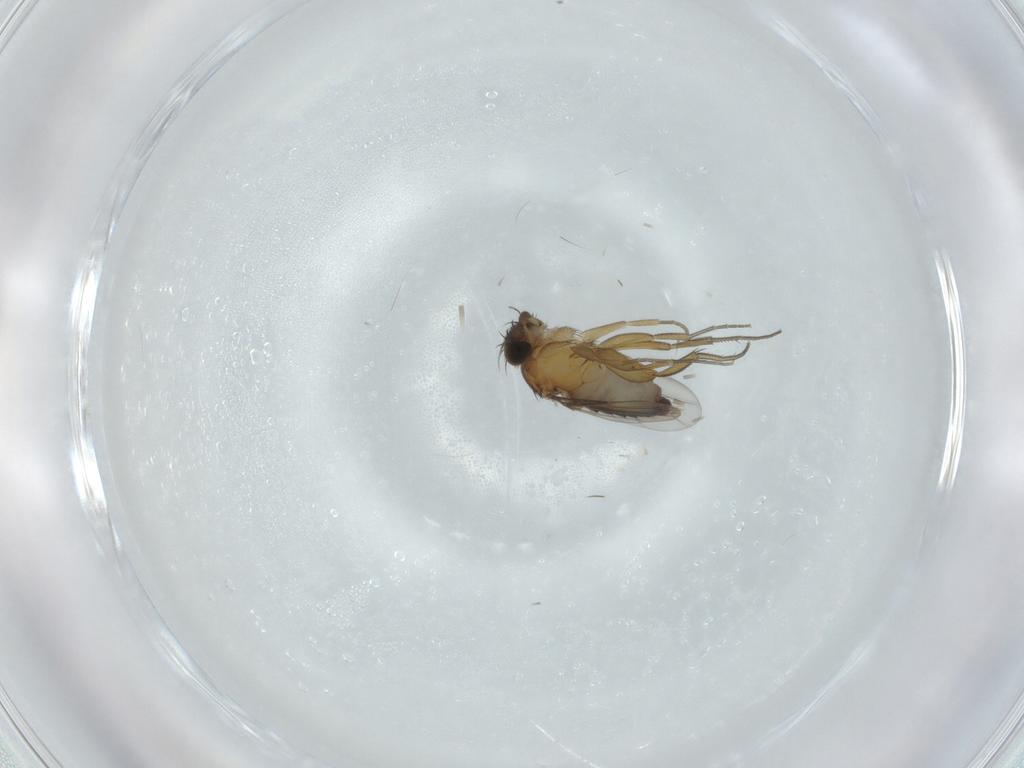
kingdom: Animalia
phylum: Arthropoda
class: Insecta
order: Diptera
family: Phoridae
